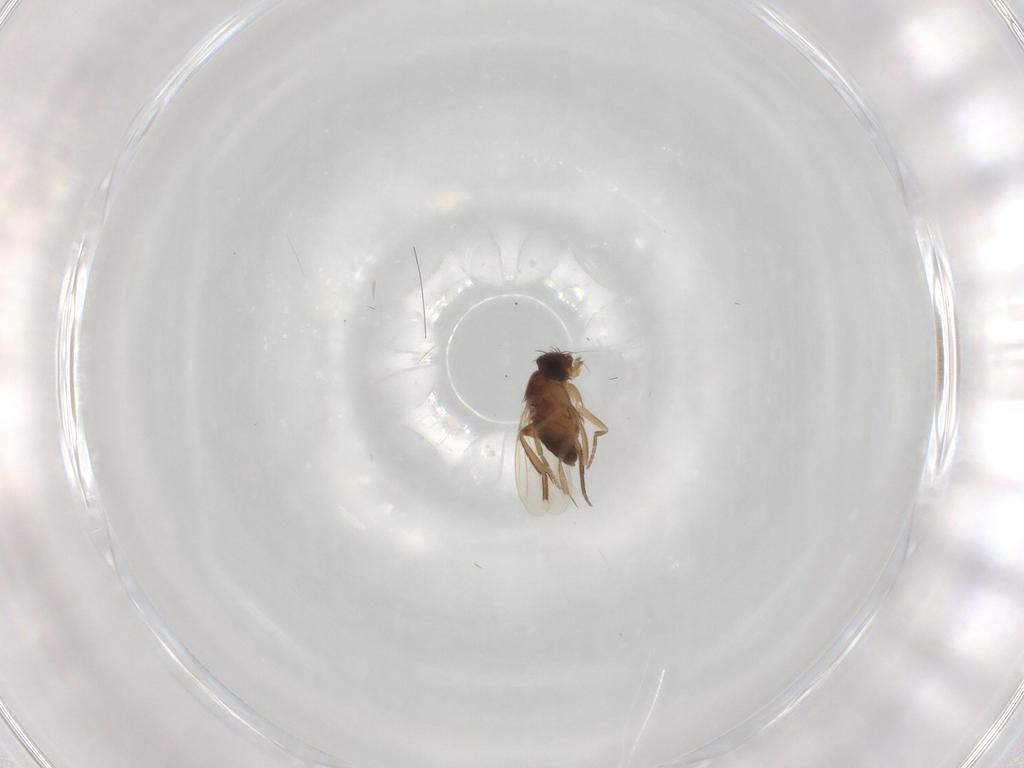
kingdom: Animalia
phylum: Arthropoda
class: Insecta
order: Diptera
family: Phoridae
